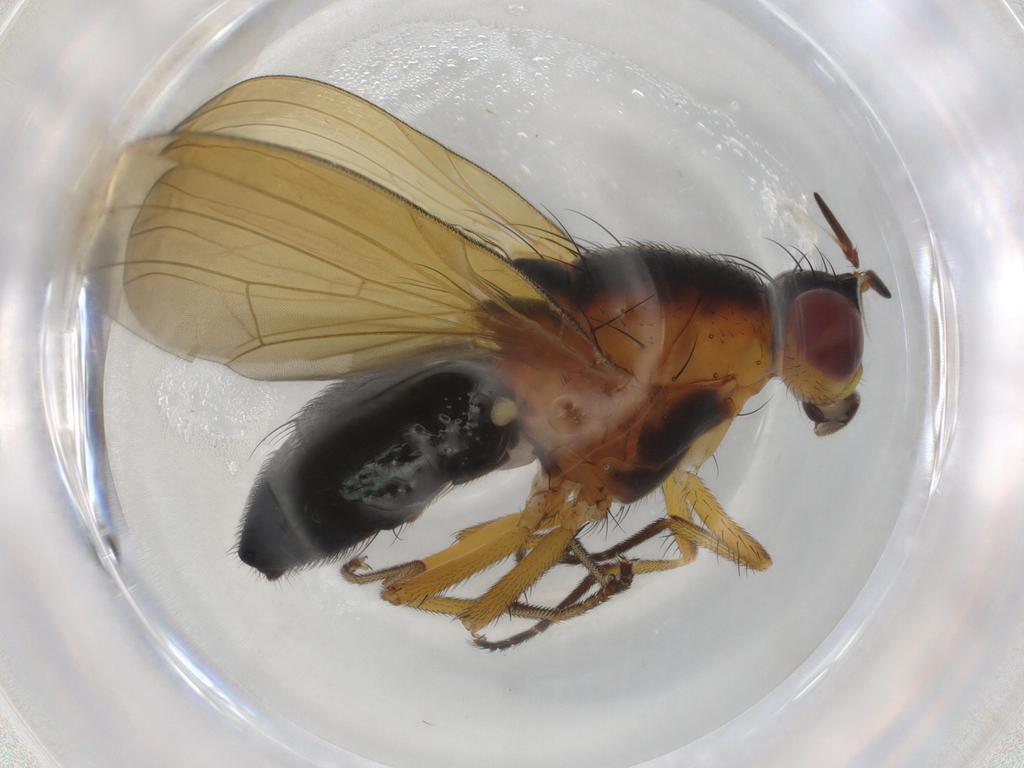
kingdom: Animalia
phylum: Arthropoda
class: Insecta
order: Diptera
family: Lauxaniidae
